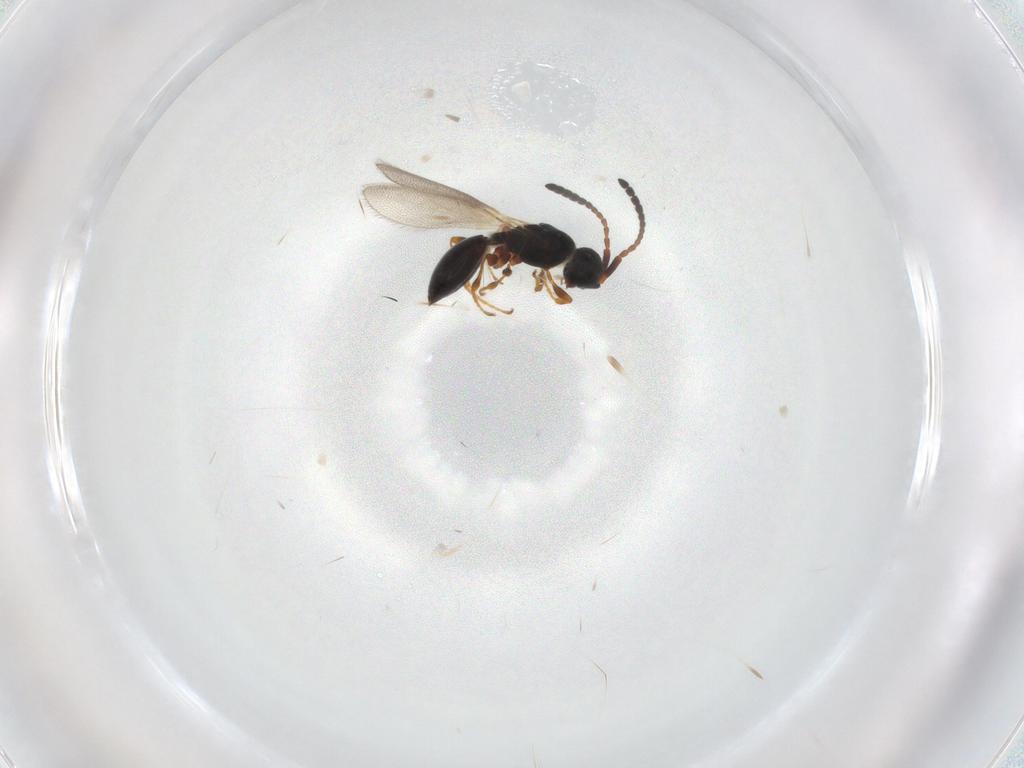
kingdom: Animalia
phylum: Arthropoda
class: Insecta
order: Hymenoptera
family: Diapriidae
